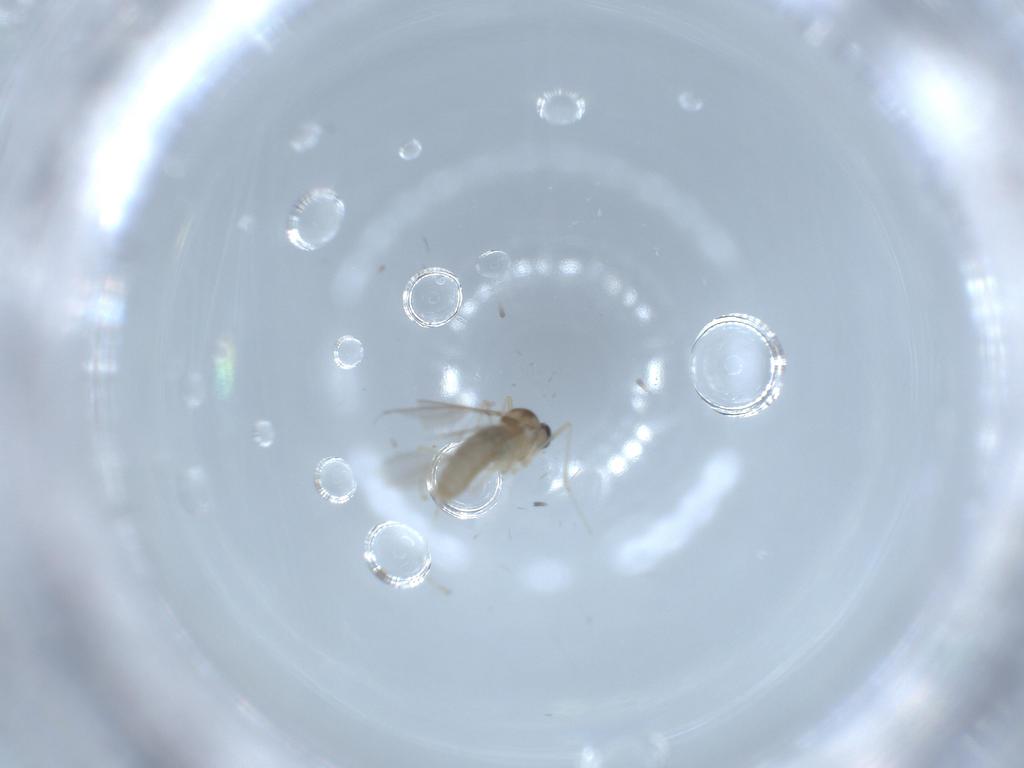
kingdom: Animalia
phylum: Arthropoda
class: Insecta
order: Diptera
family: Cecidomyiidae
